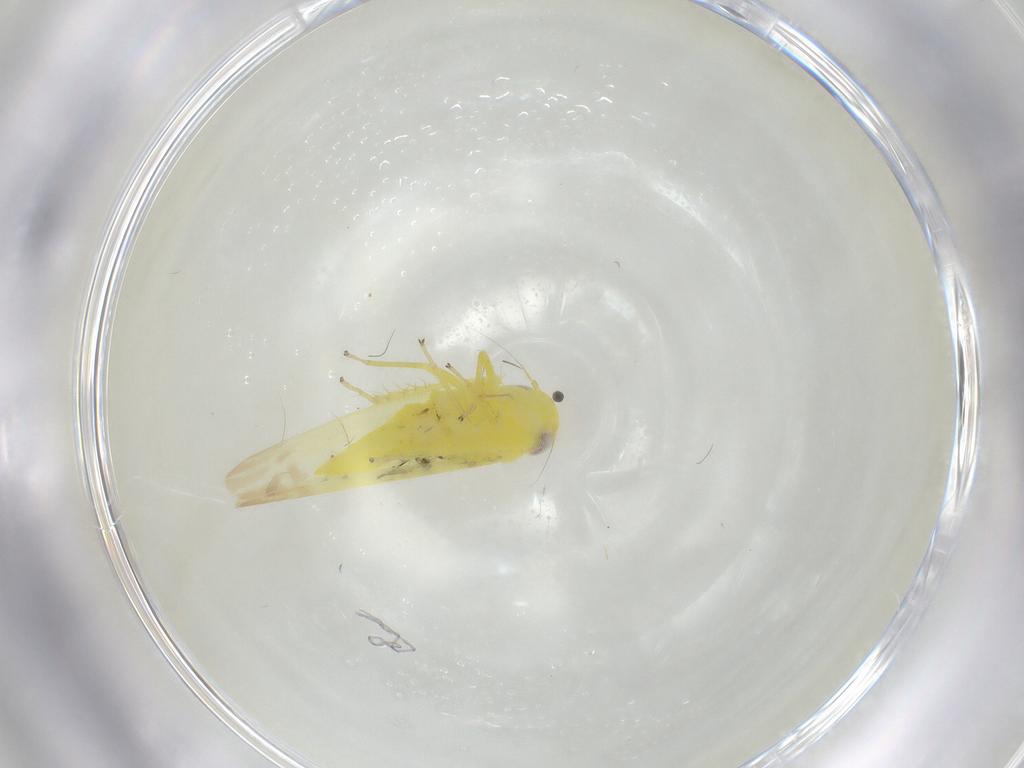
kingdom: Animalia
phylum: Arthropoda
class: Insecta
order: Hemiptera
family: Cicadellidae
